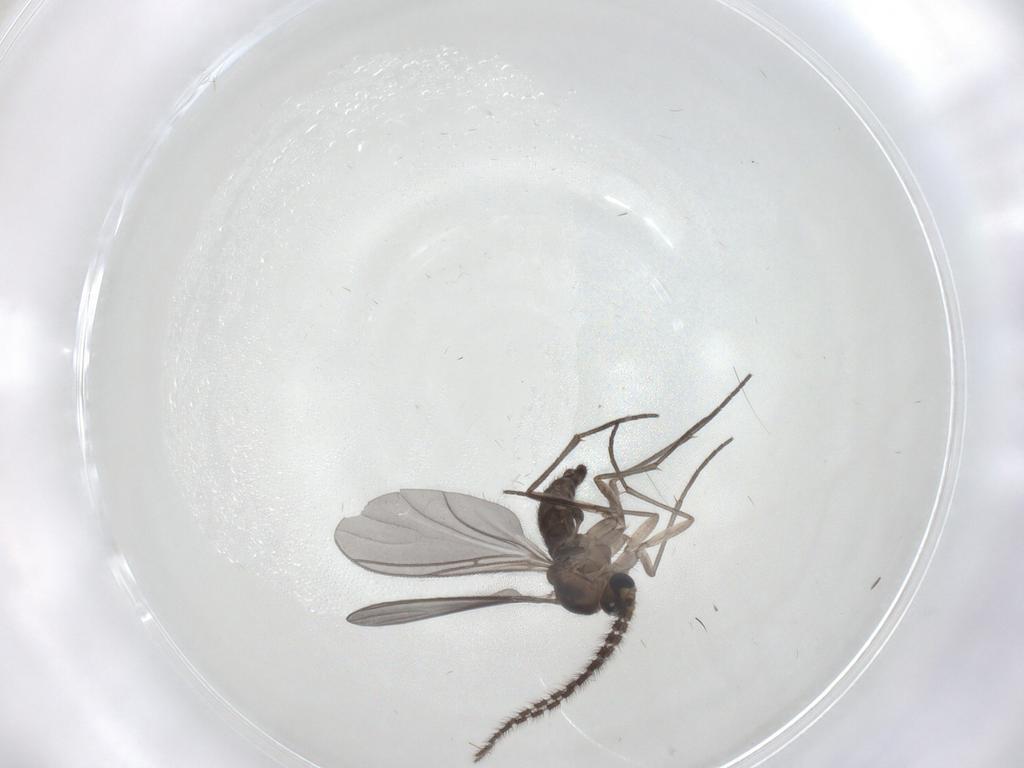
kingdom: Animalia
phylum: Arthropoda
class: Insecta
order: Diptera
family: Sciaridae
